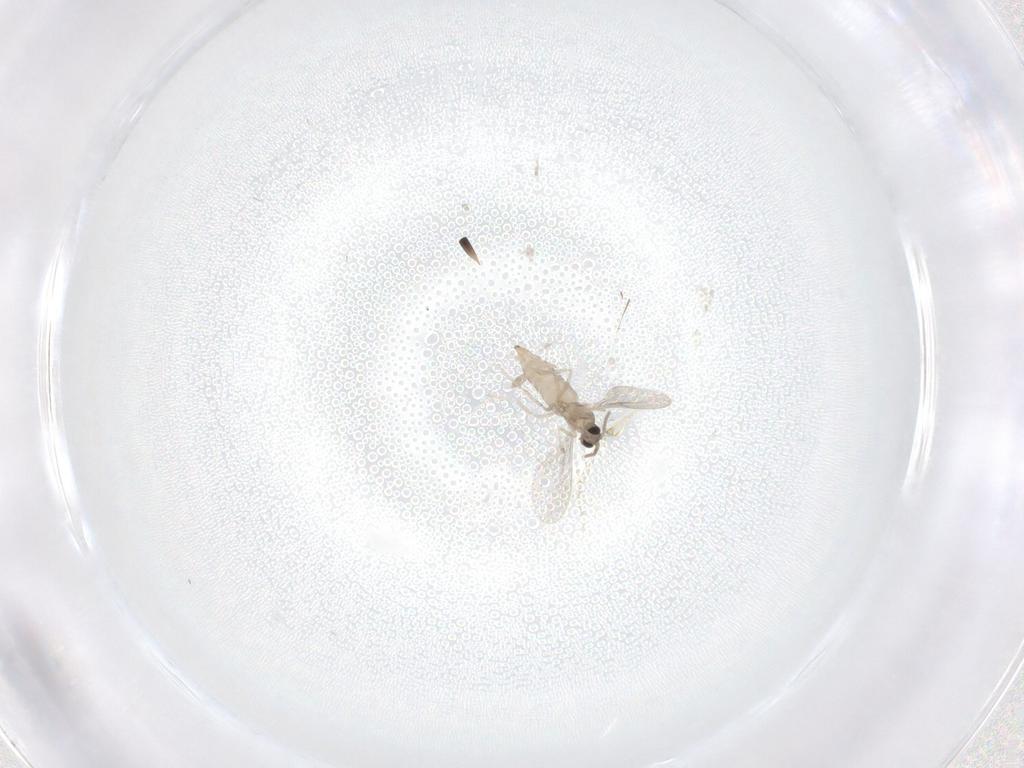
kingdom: Animalia
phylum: Arthropoda
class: Insecta
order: Diptera
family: Cecidomyiidae
